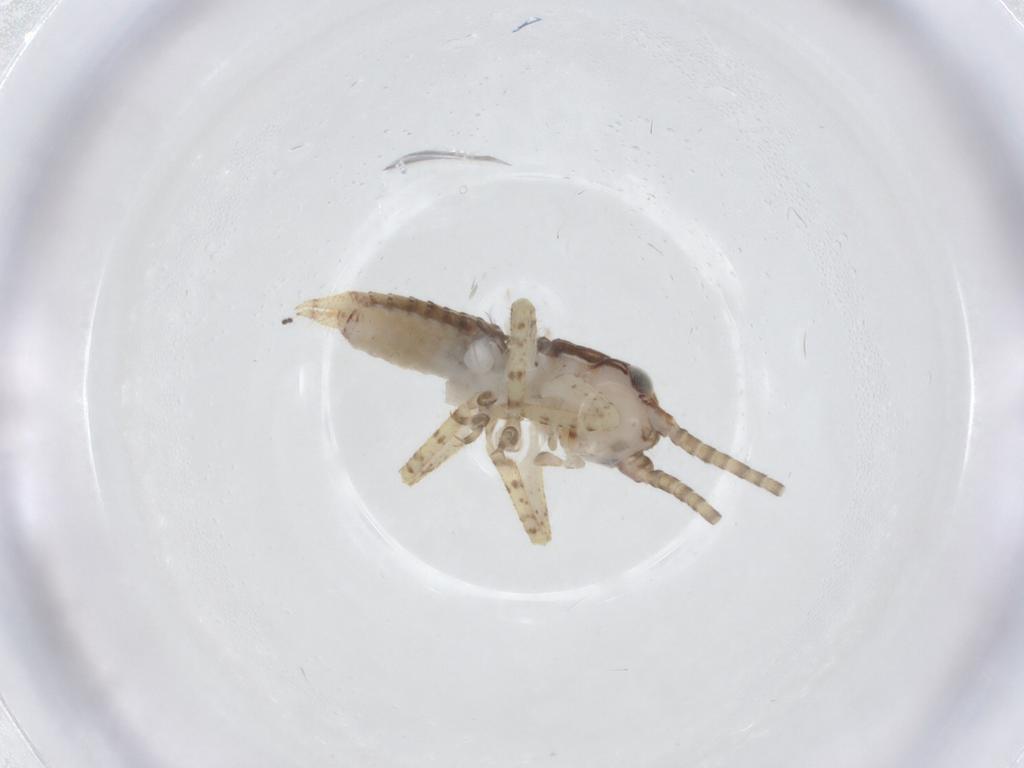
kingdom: Animalia
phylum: Arthropoda
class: Insecta
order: Orthoptera
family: Gryllidae
